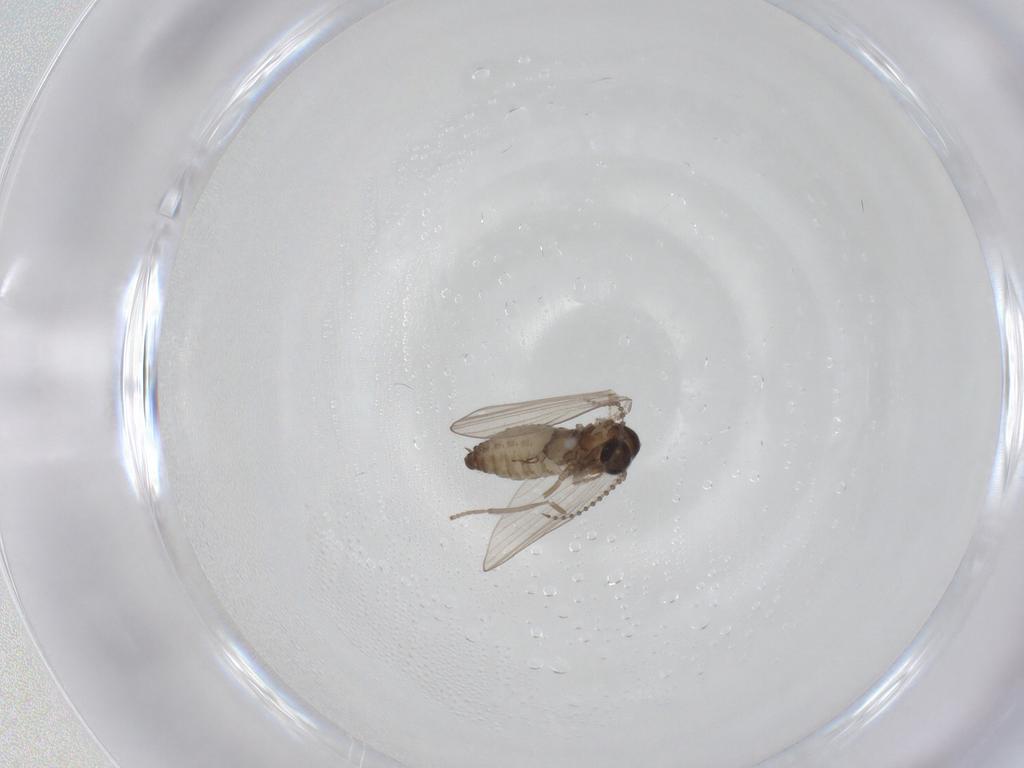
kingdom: Animalia
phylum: Arthropoda
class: Insecta
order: Diptera
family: Psychodidae
